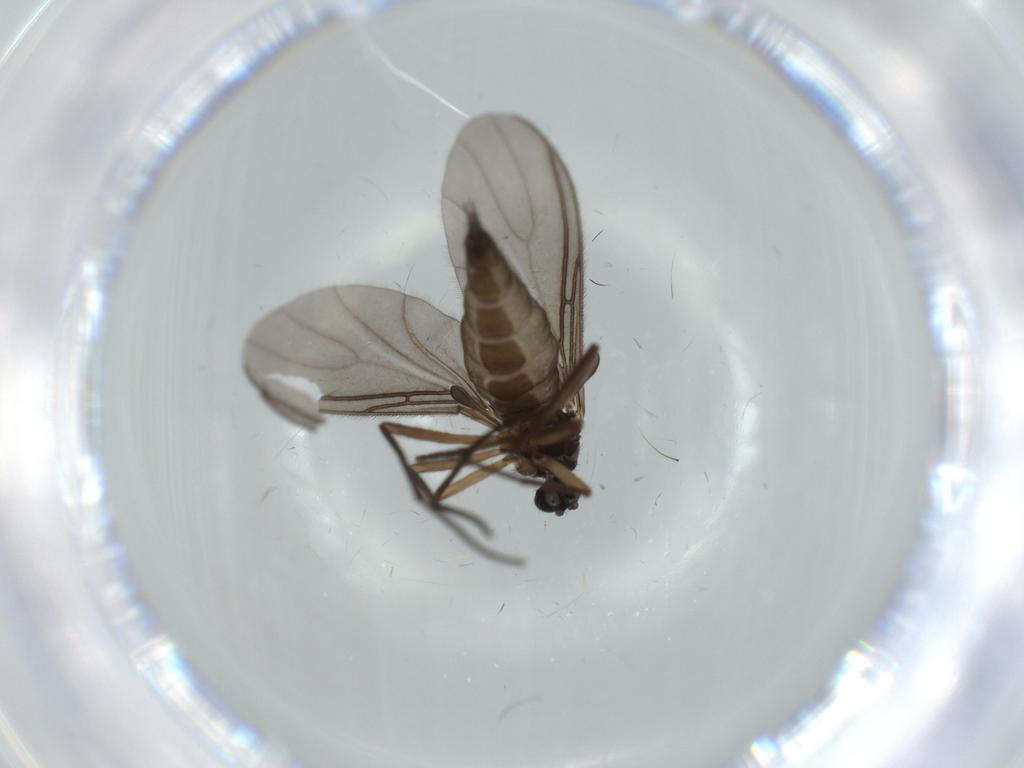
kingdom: Animalia
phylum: Arthropoda
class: Insecta
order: Diptera
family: Sciaridae
